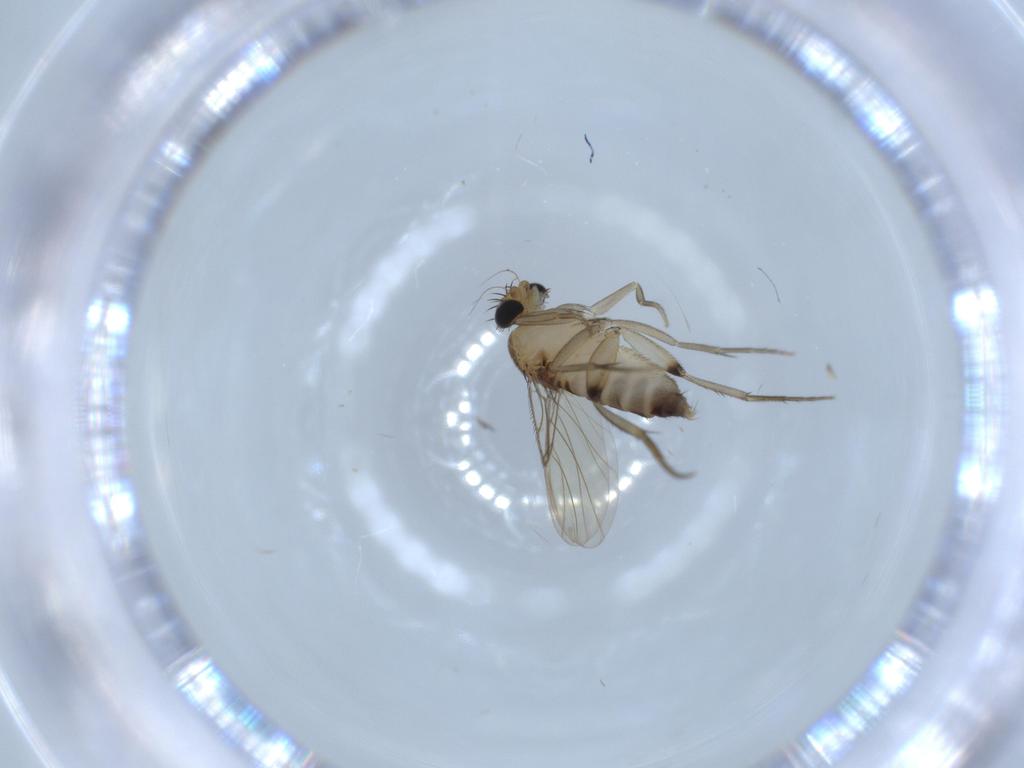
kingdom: Animalia
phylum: Arthropoda
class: Insecta
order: Diptera
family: Phoridae
